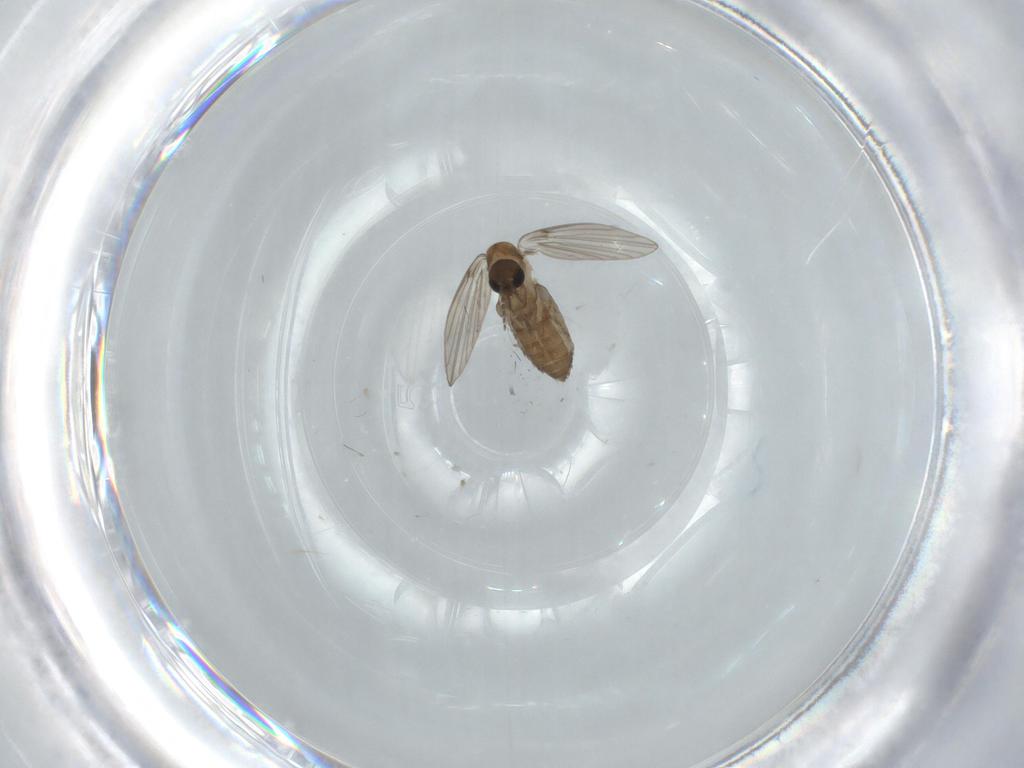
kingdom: Animalia
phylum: Arthropoda
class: Insecta
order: Diptera
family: Psychodidae
